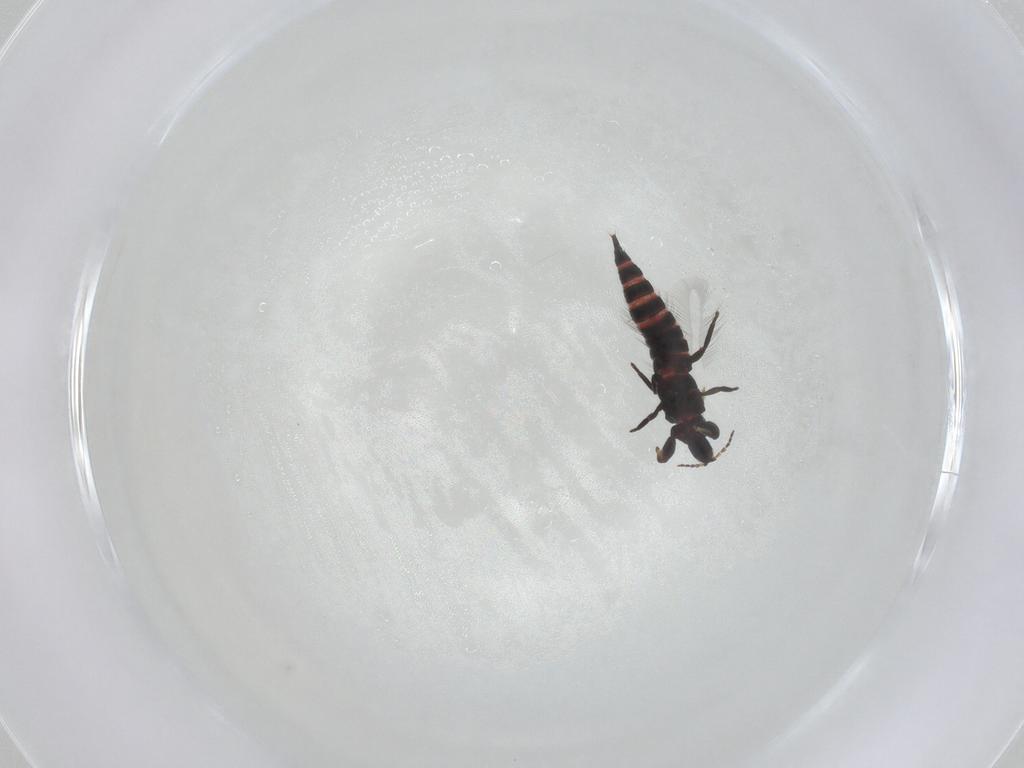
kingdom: Animalia
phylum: Arthropoda
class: Insecta
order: Thysanoptera
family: Phlaeothripidae
